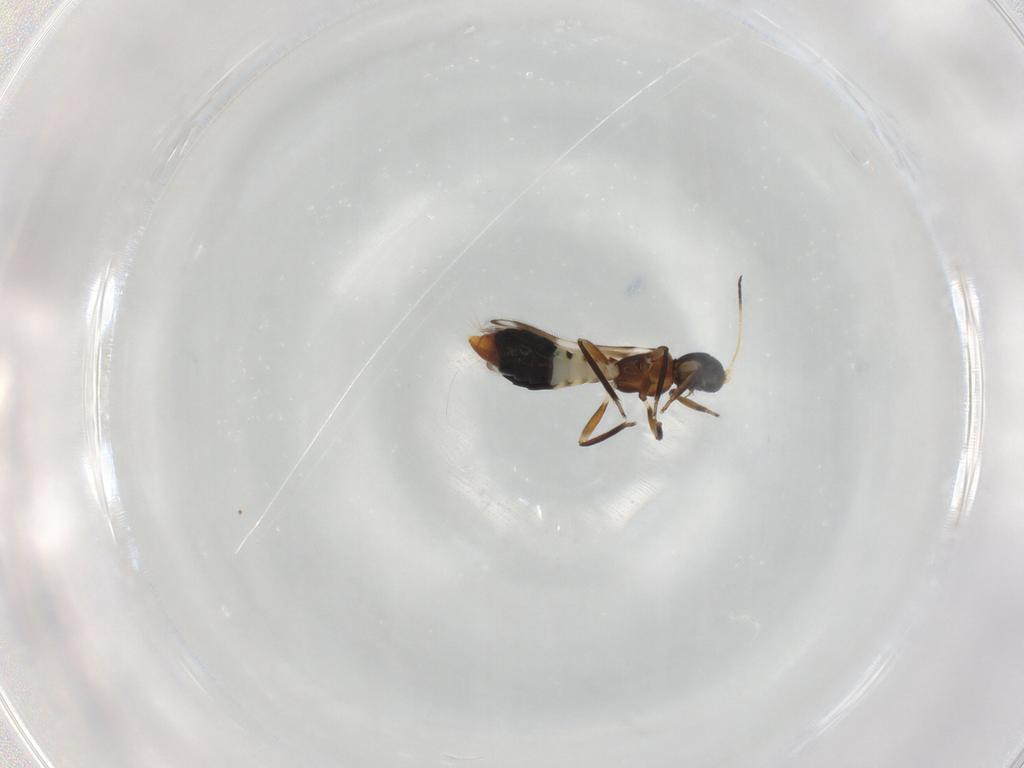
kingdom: Animalia
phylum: Arthropoda
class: Insecta
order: Thysanoptera
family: Aeolothripidae
